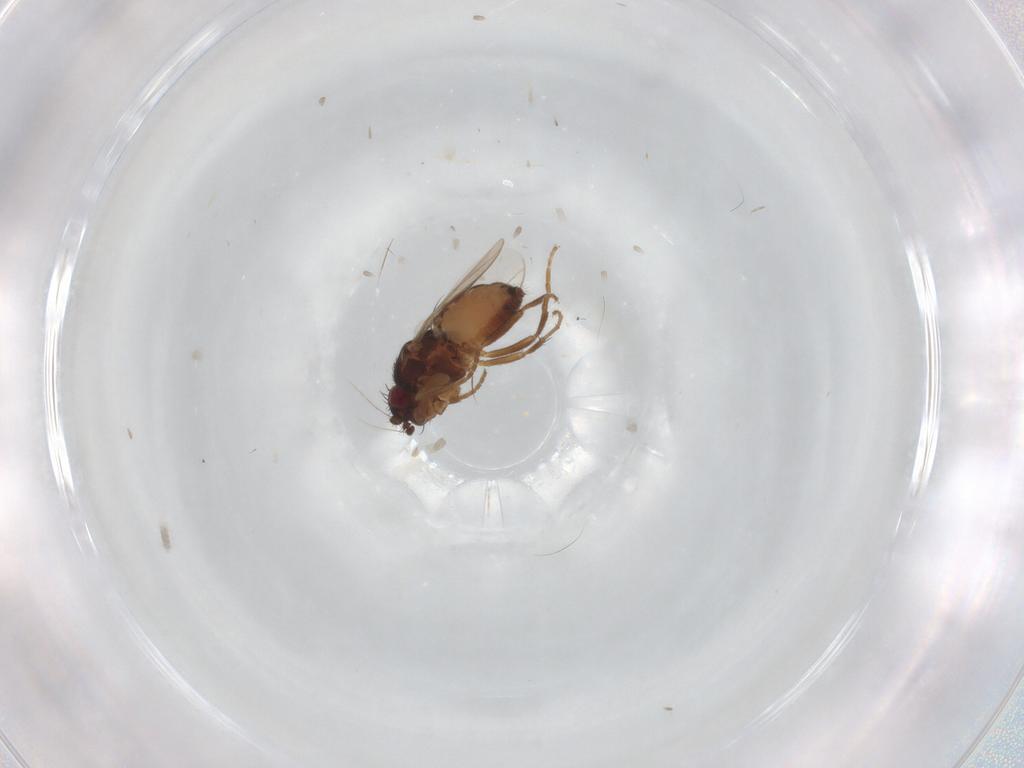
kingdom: Animalia
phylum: Arthropoda
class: Insecta
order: Diptera
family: Sphaeroceridae
